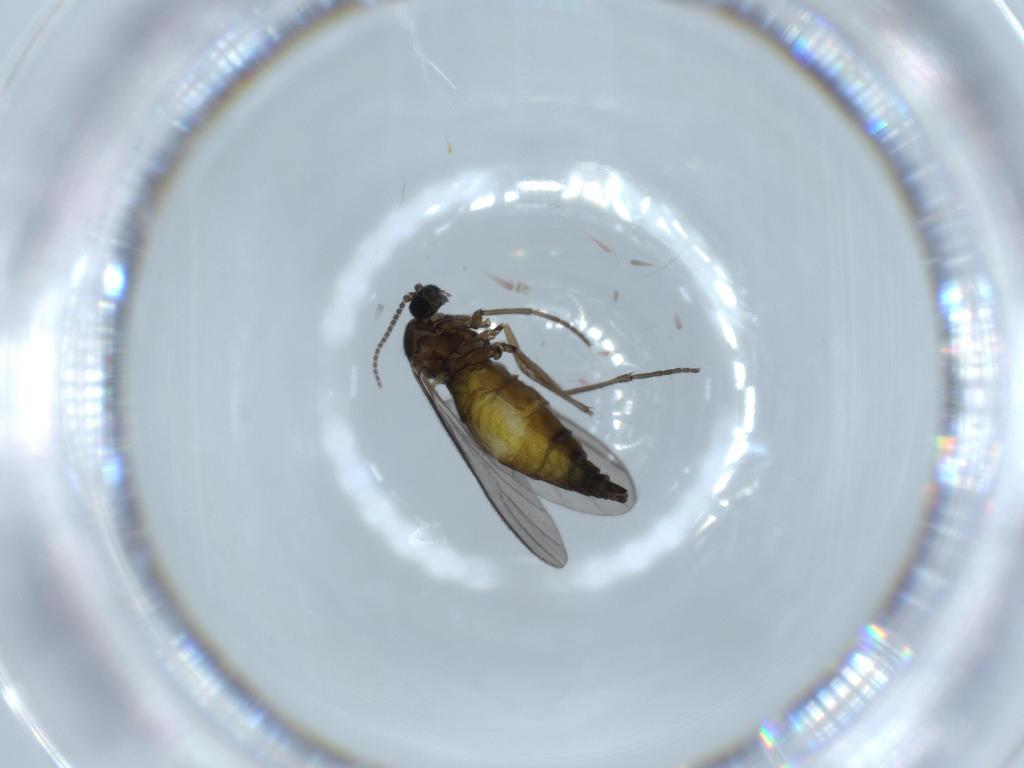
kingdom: Animalia
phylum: Arthropoda
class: Insecta
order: Diptera
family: Sciaridae
